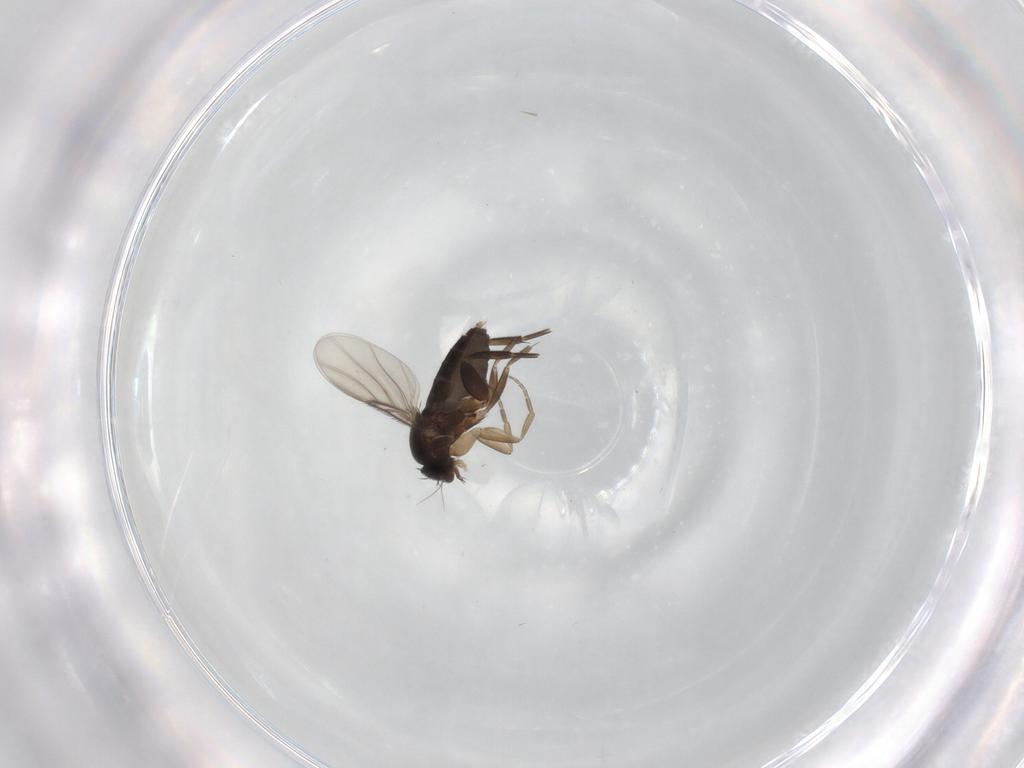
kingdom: Animalia
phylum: Arthropoda
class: Insecta
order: Diptera
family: Phoridae
